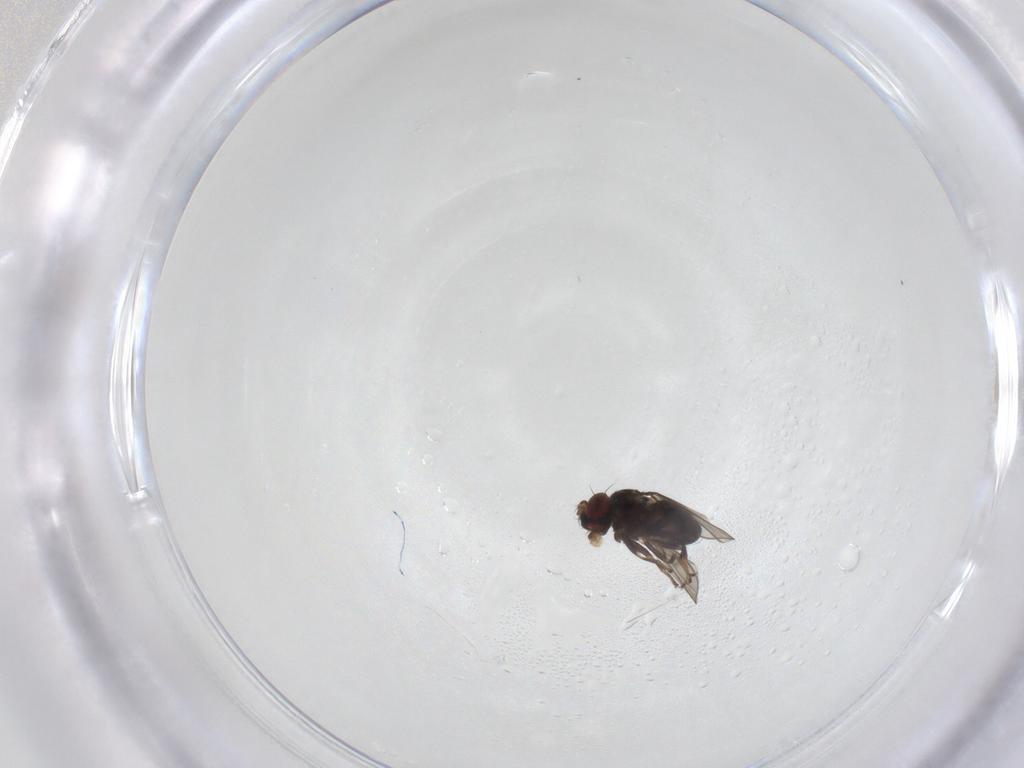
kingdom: Animalia
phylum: Arthropoda
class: Insecta
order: Diptera
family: Ephydridae
